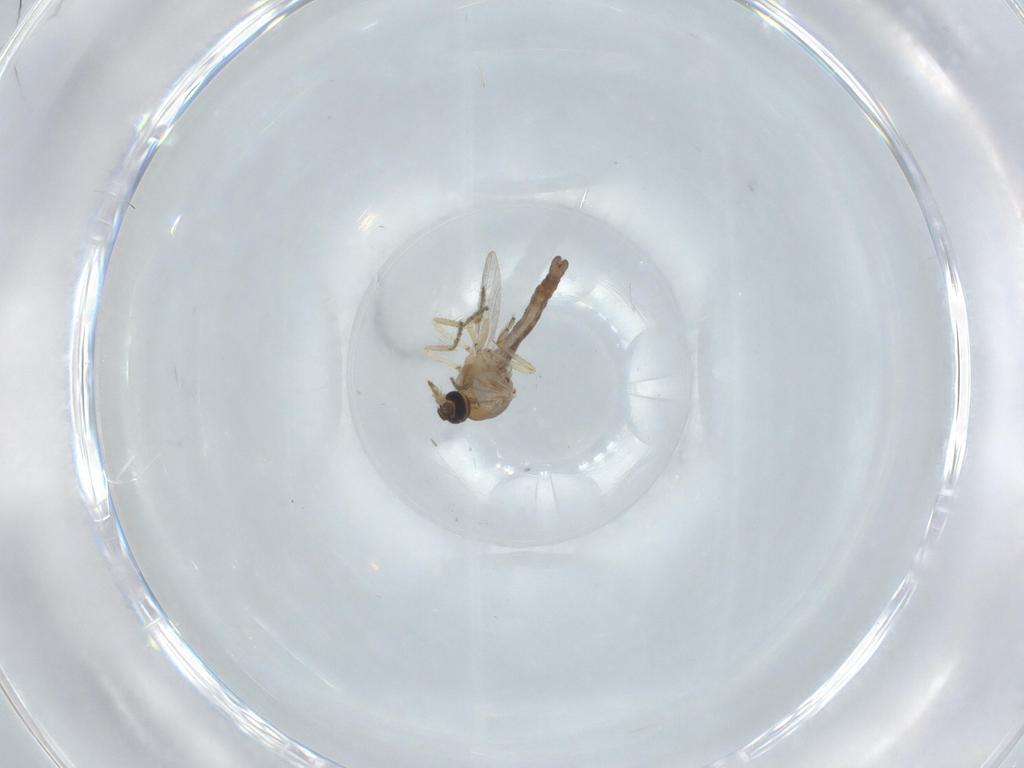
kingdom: Animalia
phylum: Arthropoda
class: Insecta
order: Diptera
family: Ceratopogonidae
